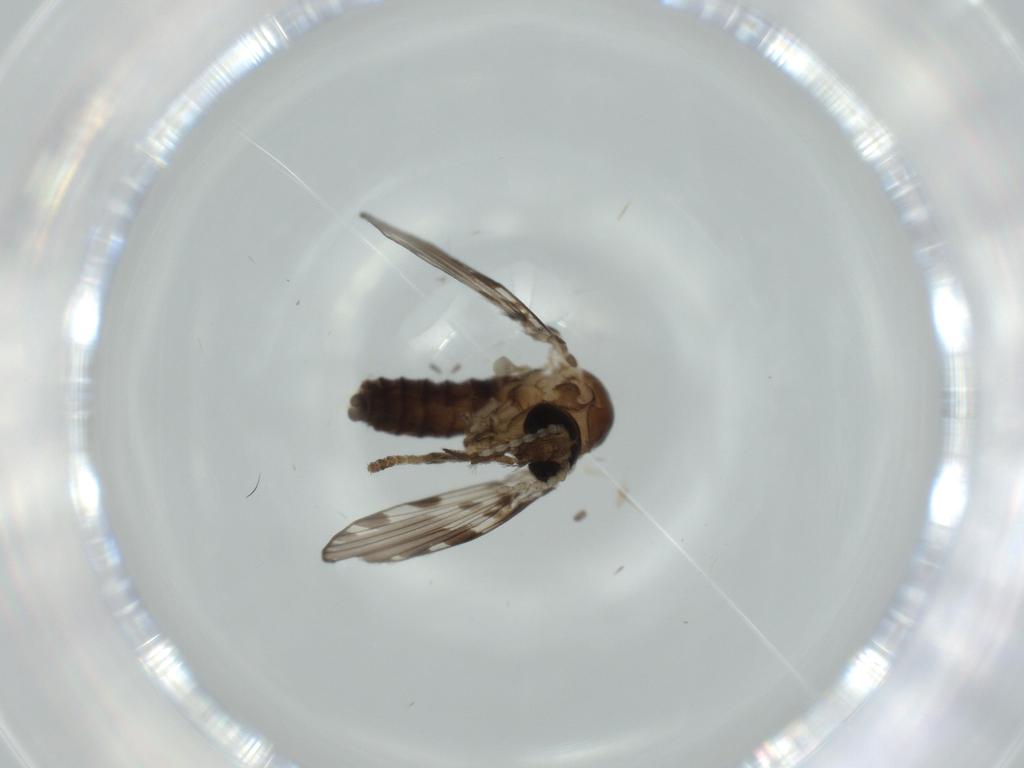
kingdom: Animalia
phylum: Arthropoda
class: Insecta
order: Diptera
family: Psychodidae
